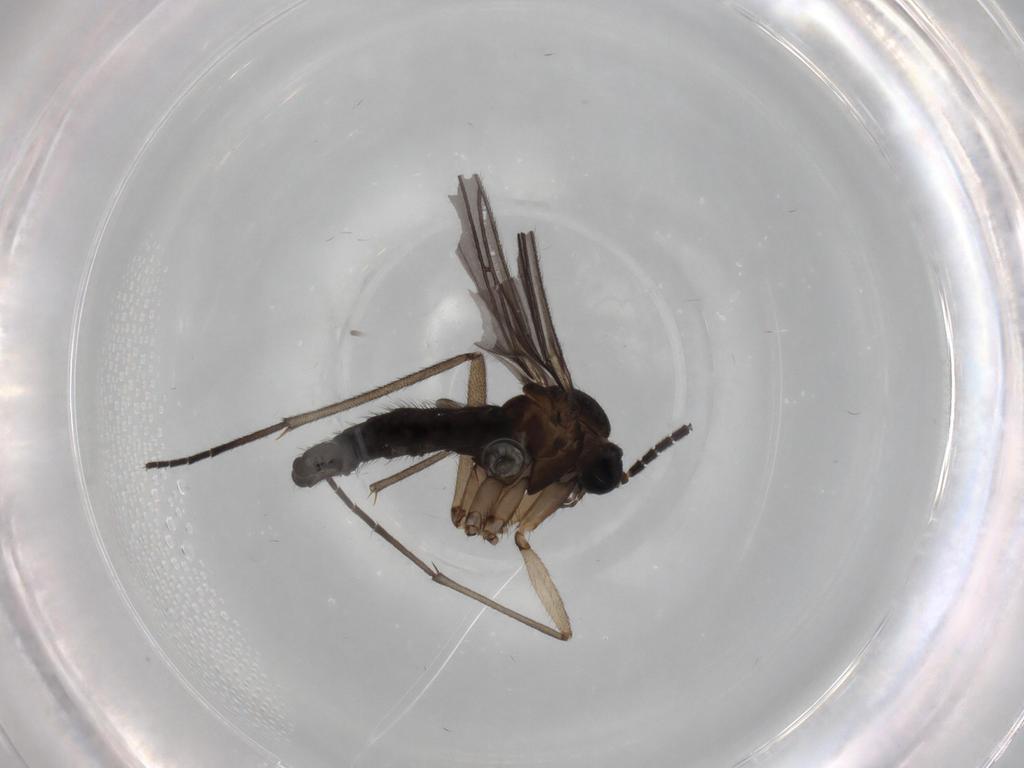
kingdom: Animalia
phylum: Arthropoda
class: Insecta
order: Diptera
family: Sciaridae
